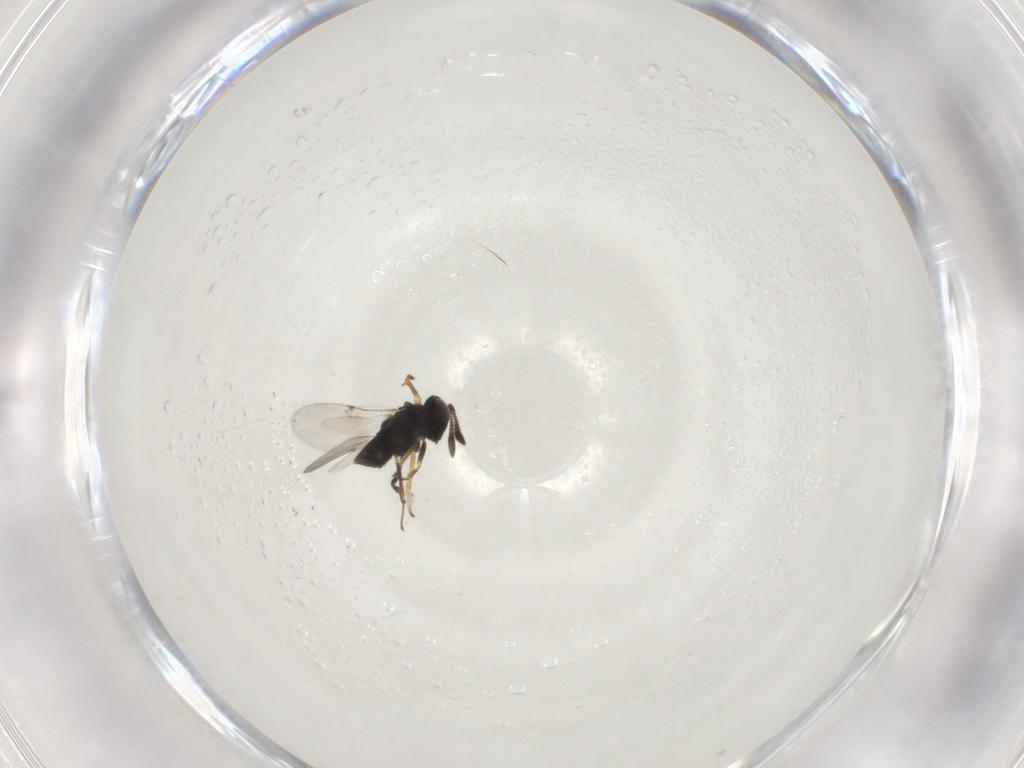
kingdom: Animalia
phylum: Arthropoda
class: Insecta
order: Hymenoptera
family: Encyrtidae
